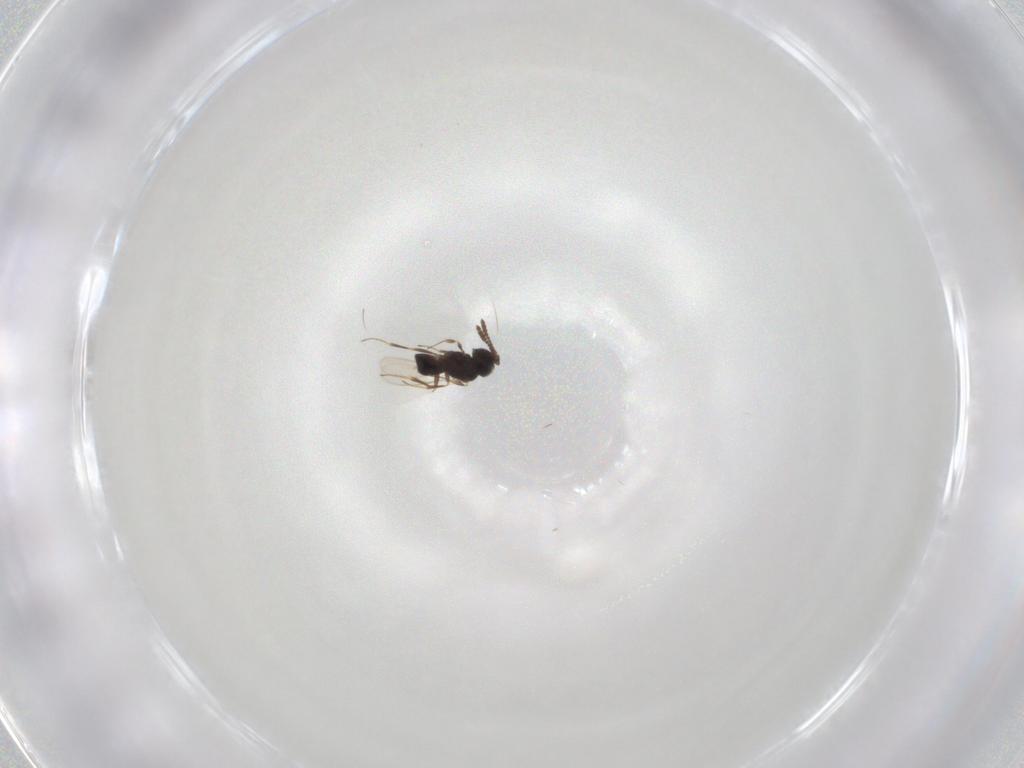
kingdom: Animalia
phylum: Arthropoda
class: Insecta
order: Hymenoptera
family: Scelionidae
